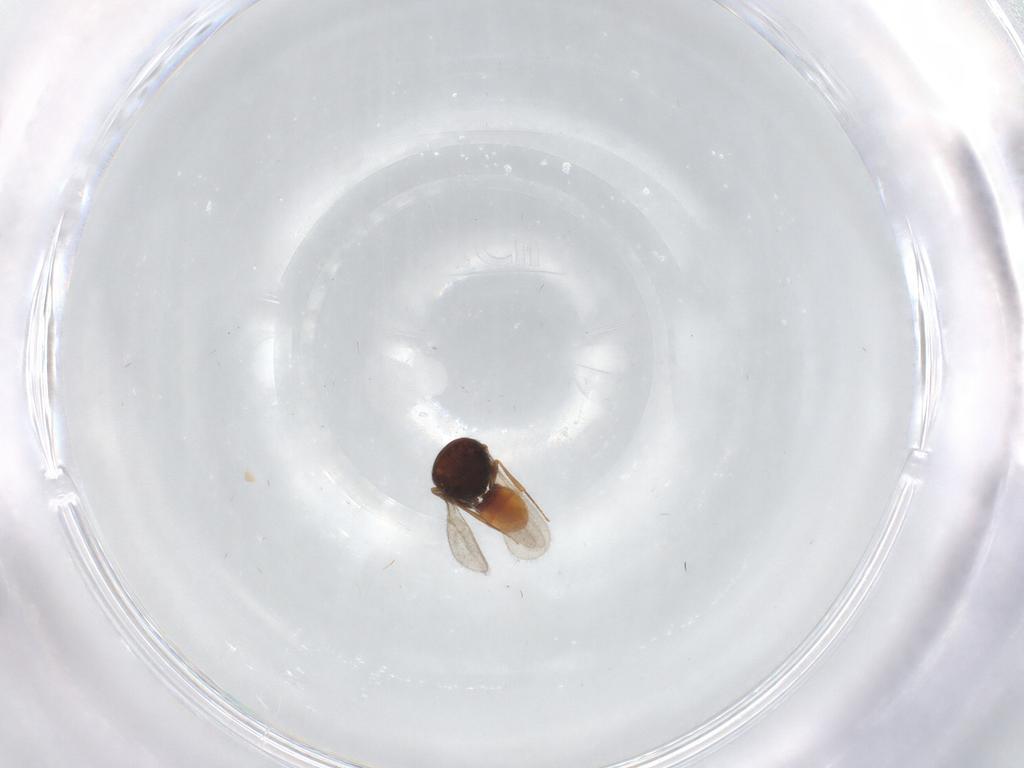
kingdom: Animalia
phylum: Arthropoda
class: Insecta
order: Hymenoptera
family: Scelionidae
